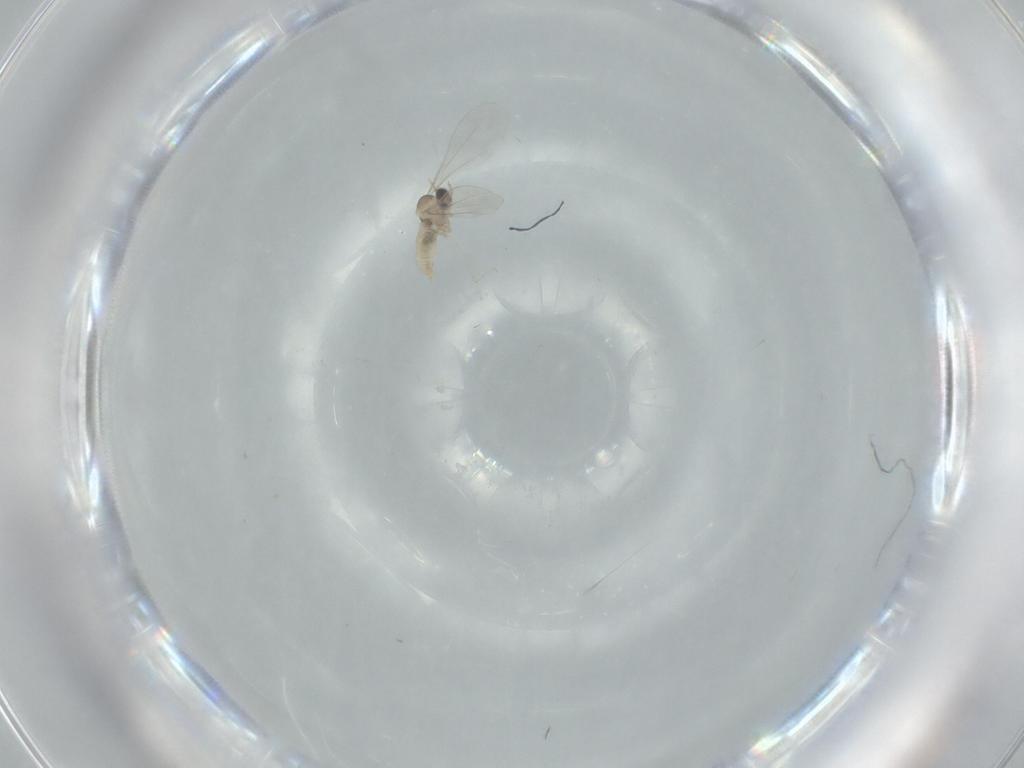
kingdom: Animalia
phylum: Arthropoda
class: Insecta
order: Diptera
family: Cecidomyiidae
